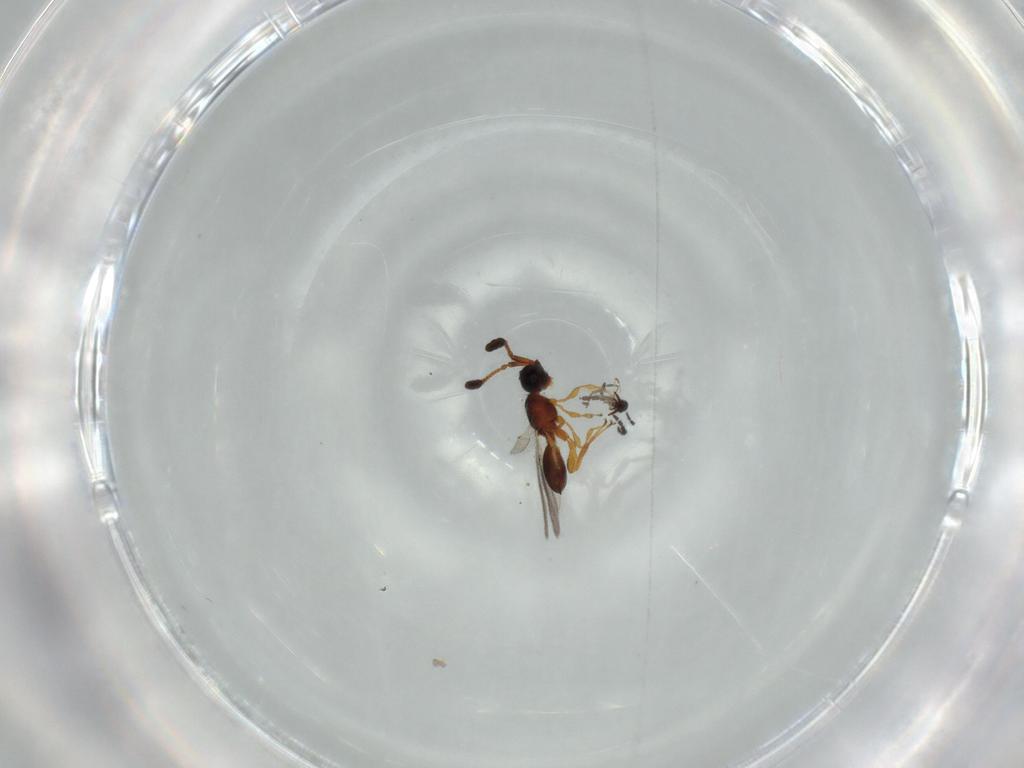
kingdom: Animalia
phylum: Arthropoda
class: Insecta
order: Hymenoptera
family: Diapriidae
